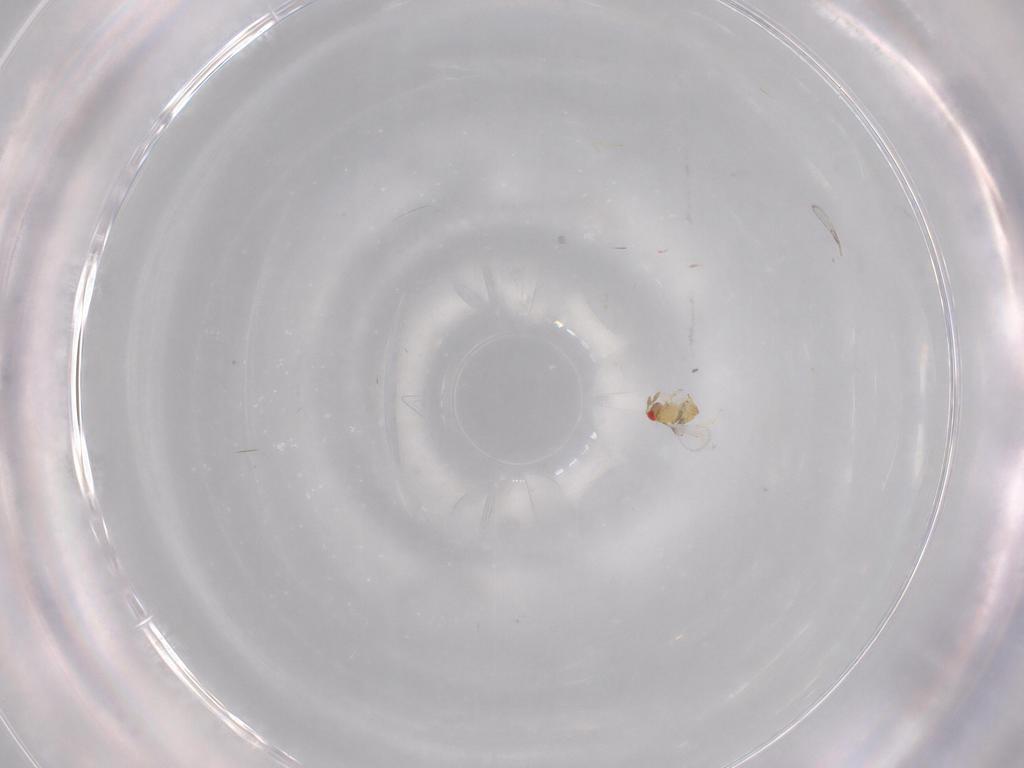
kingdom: Animalia
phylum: Arthropoda
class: Insecta
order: Hymenoptera
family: Trichogrammatidae
